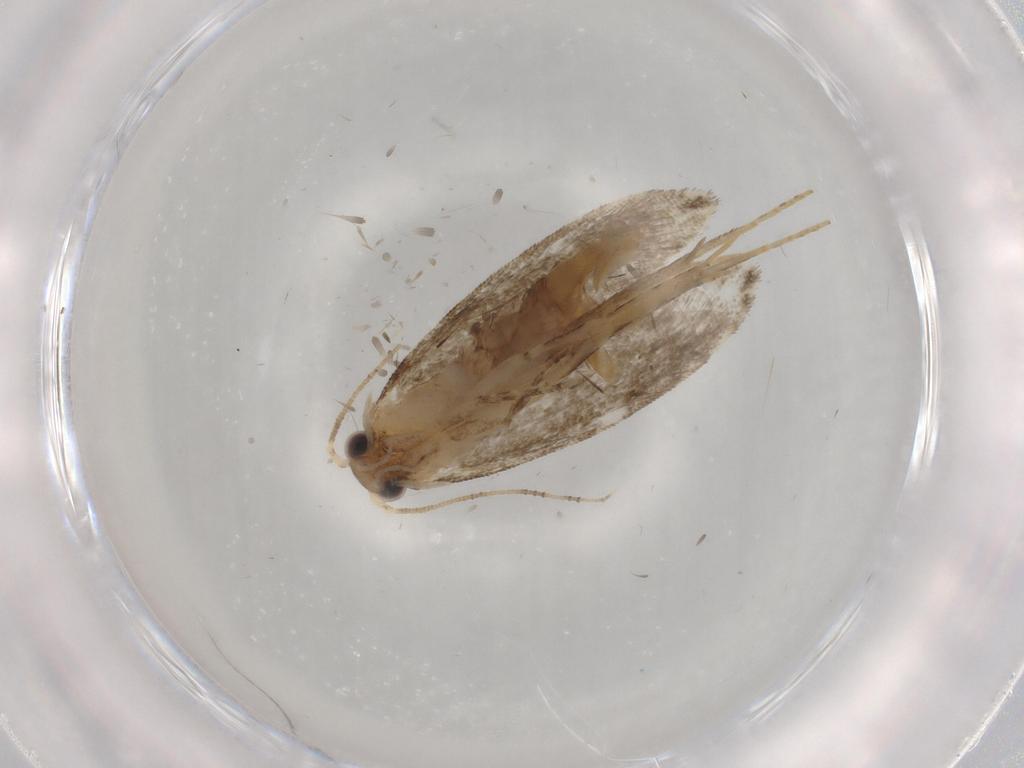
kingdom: Animalia
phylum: Arthropoda
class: Insecta
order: Lepidoptera
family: Tineidae
